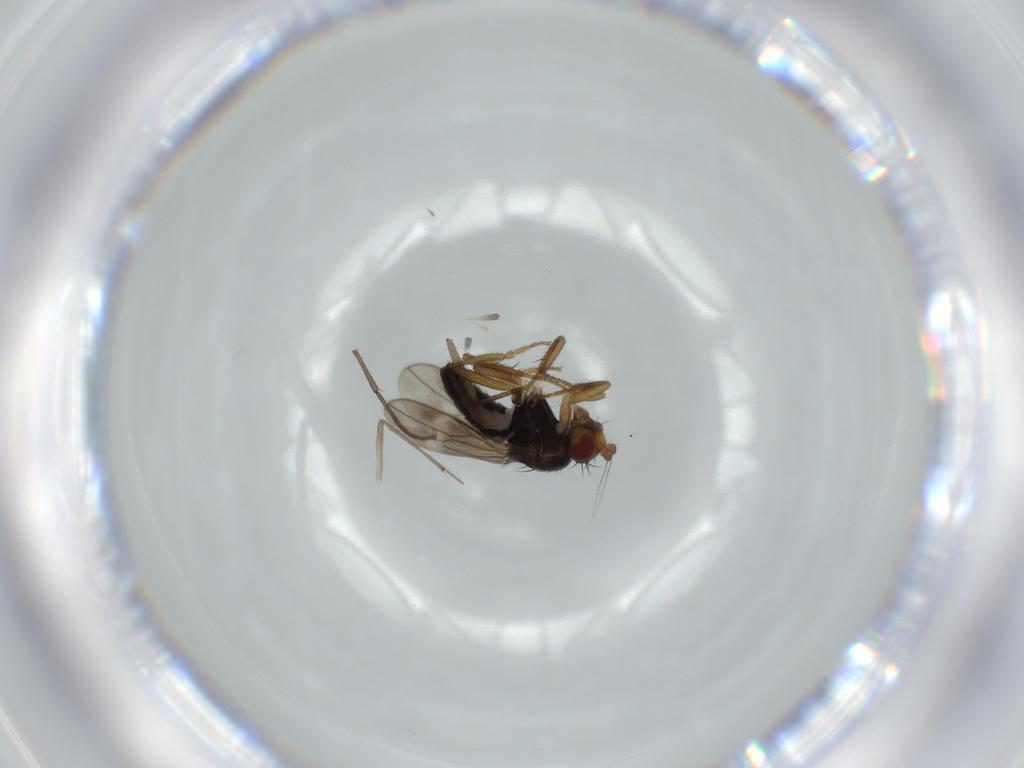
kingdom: Animalia
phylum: Arthropoda
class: Insecta
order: Diptera
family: Sphaeroceridae
